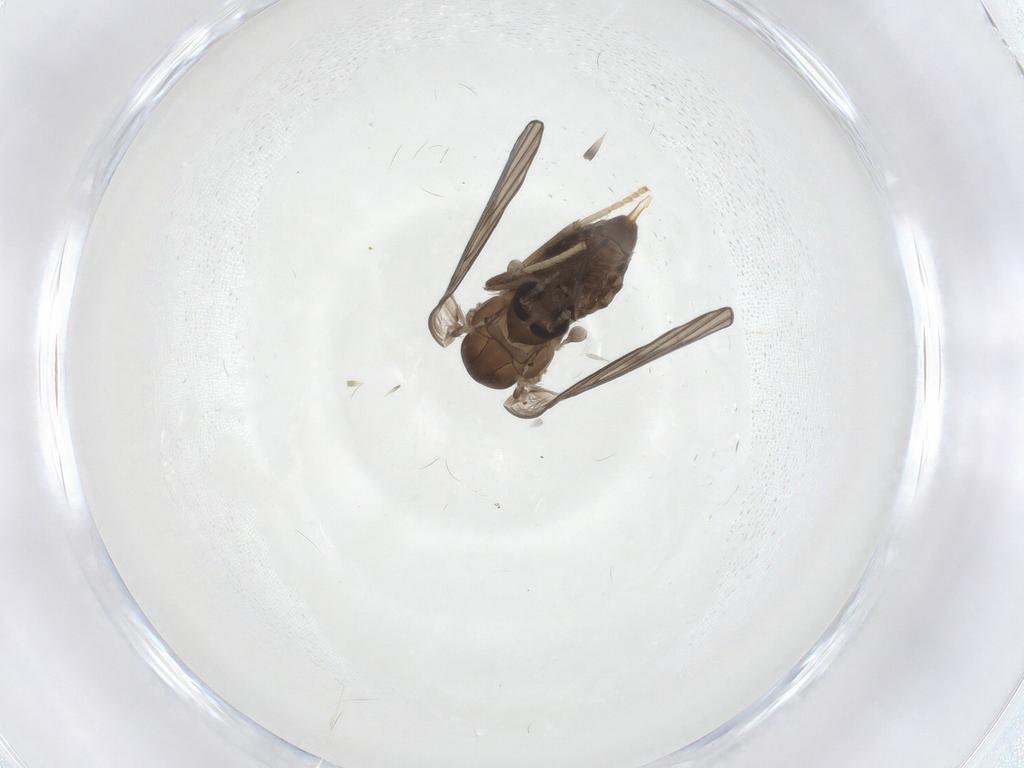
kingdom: Animalia
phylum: Arthropoda
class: Insecta
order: Diptera
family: Psychodidae
